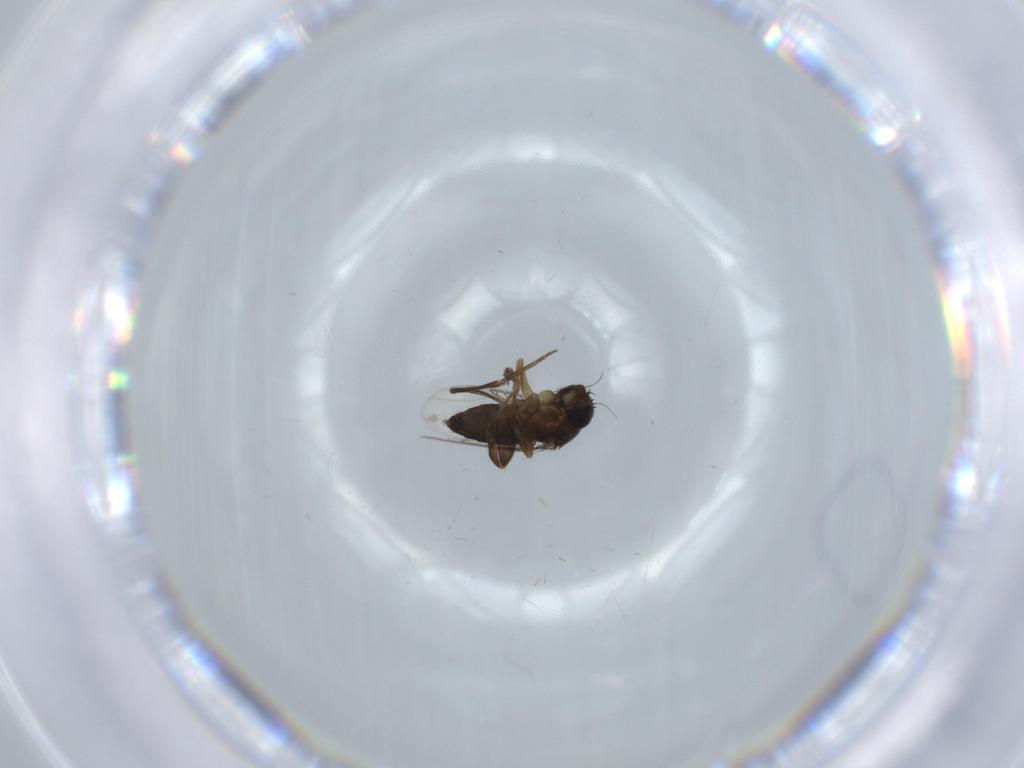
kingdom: Animalia
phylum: Arthropoda
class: Insecta
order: Diptera
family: Phoridae
